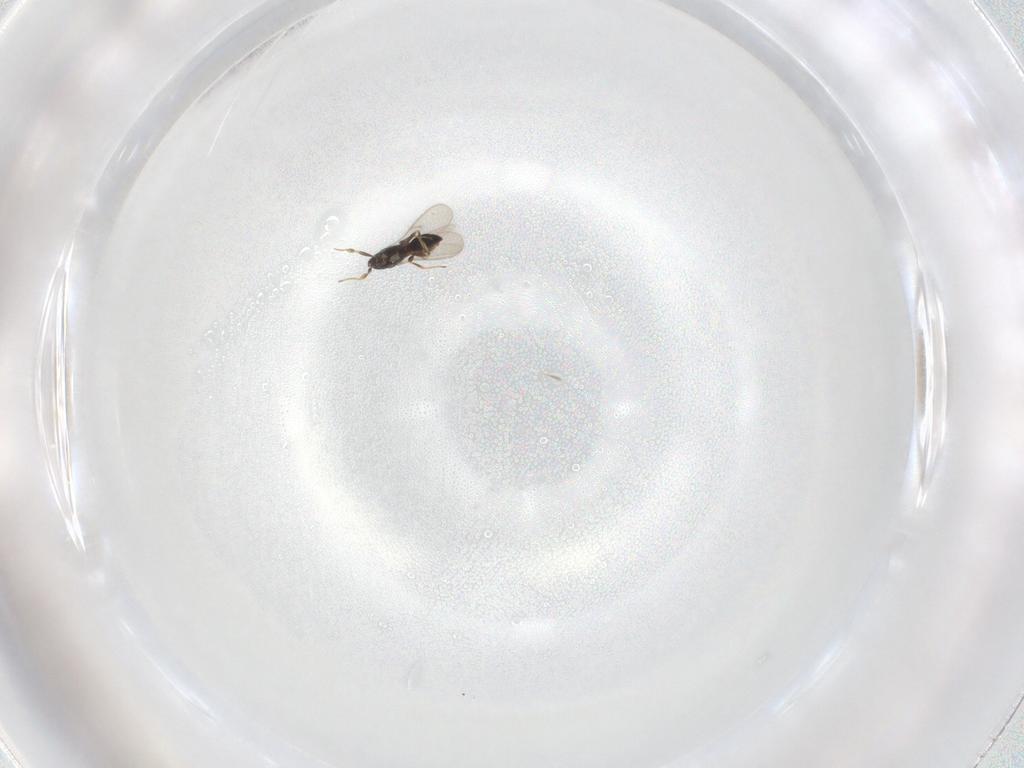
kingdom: Animalia
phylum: Arthropoda
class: Insecta
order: Hymenoptera
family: Scelionidae
